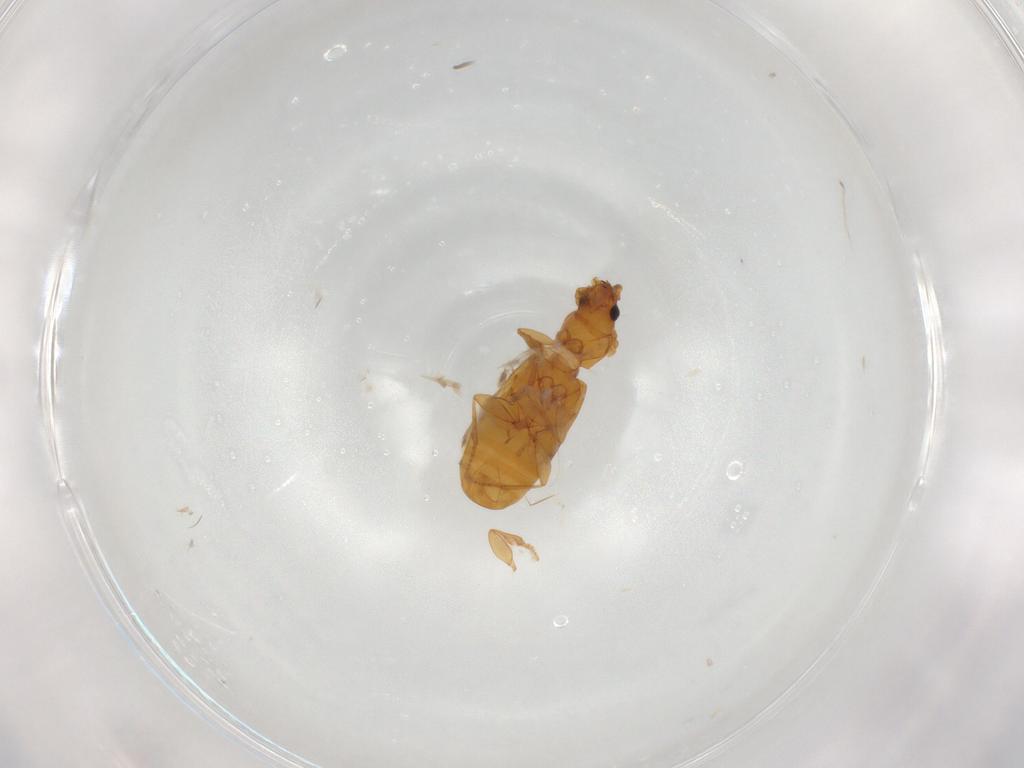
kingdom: Animalia
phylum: Arthropoda
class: Insecta
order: Coleoptera
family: Carabidae
